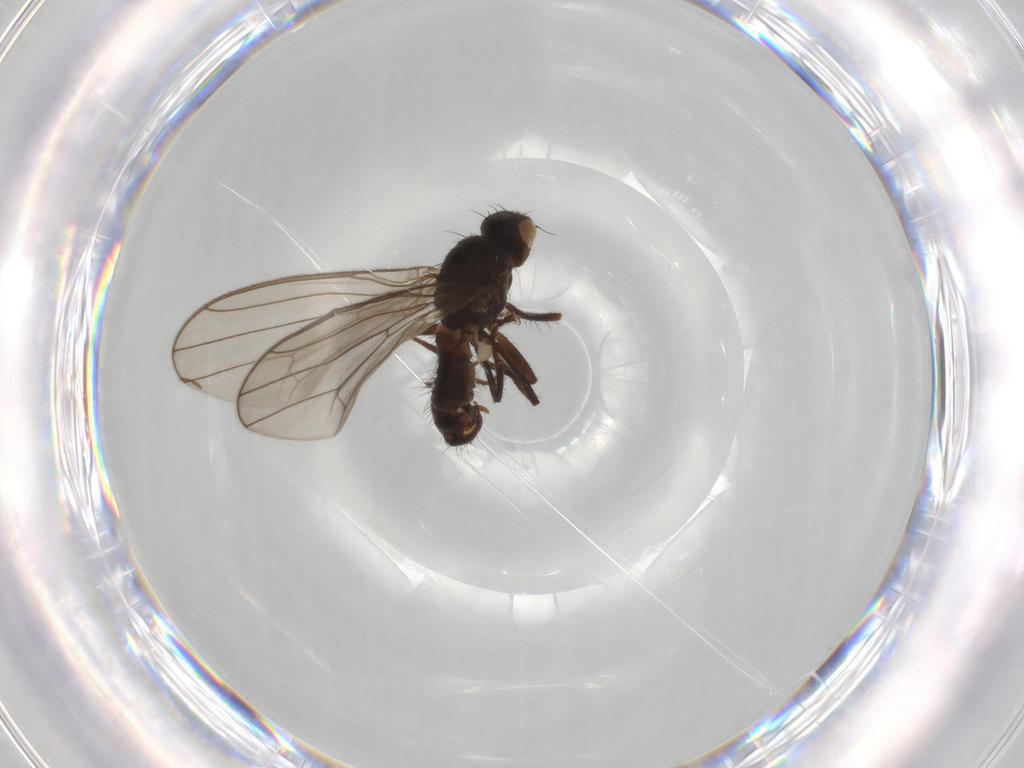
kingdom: Animalia
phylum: Arthropoda
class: Insecta
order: Diptera
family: Heleomyzidae
